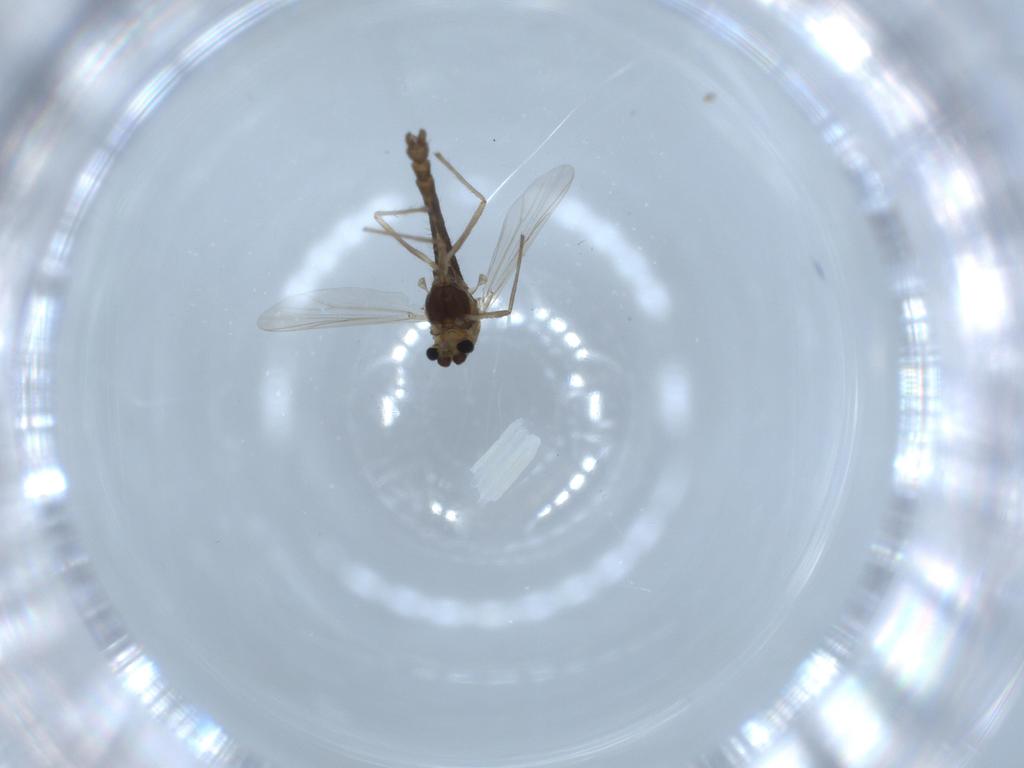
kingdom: Animalia
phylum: Arthropoda
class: Insecta
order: Diptera
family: Chironomidae
